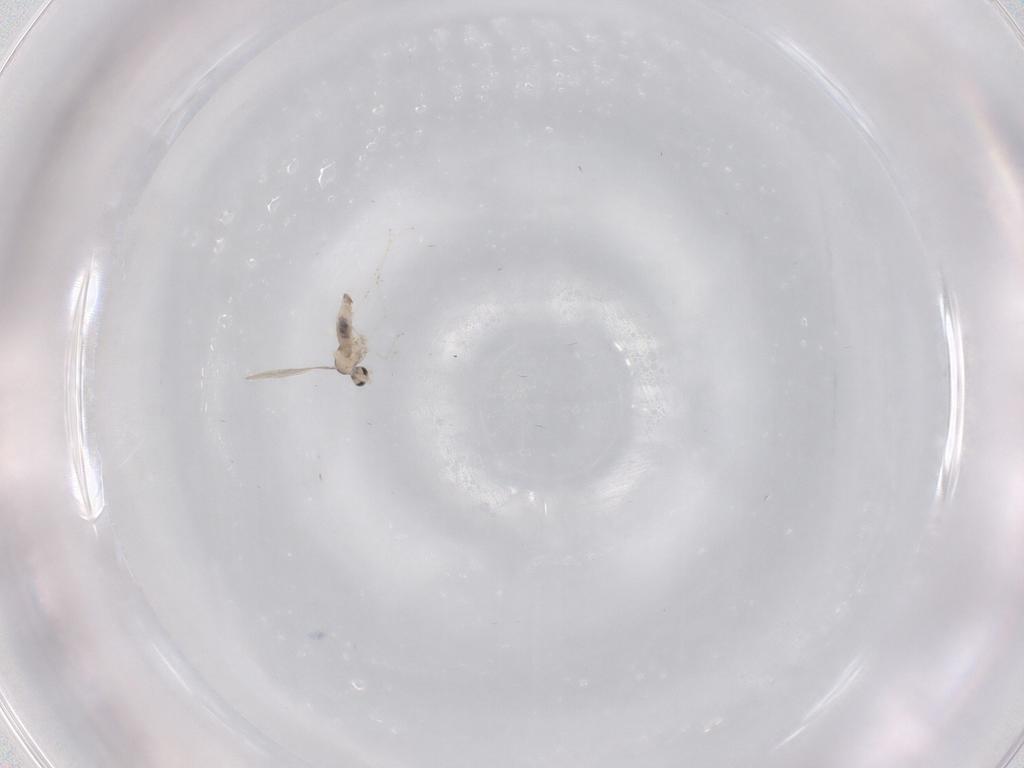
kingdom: Animalia
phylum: Arthropoda
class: Insecta
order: Diptera
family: Cecidomyiidae
